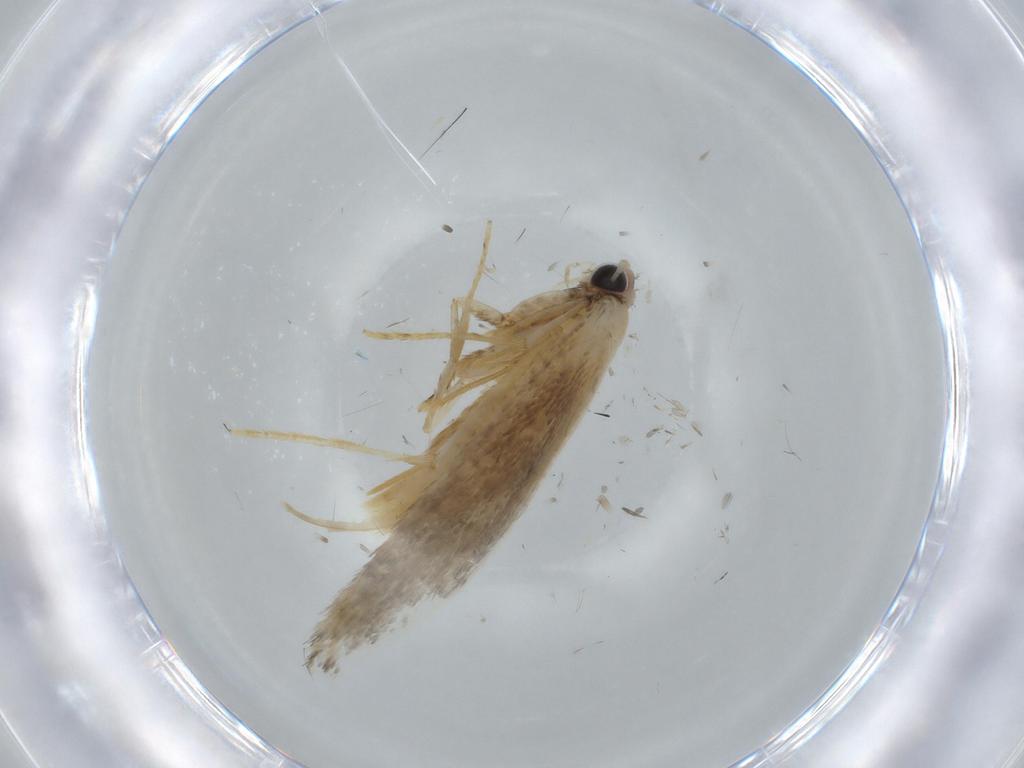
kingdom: Animalia
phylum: Arthropoda
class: Insecta
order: Lepidoptera
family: Tineidae
